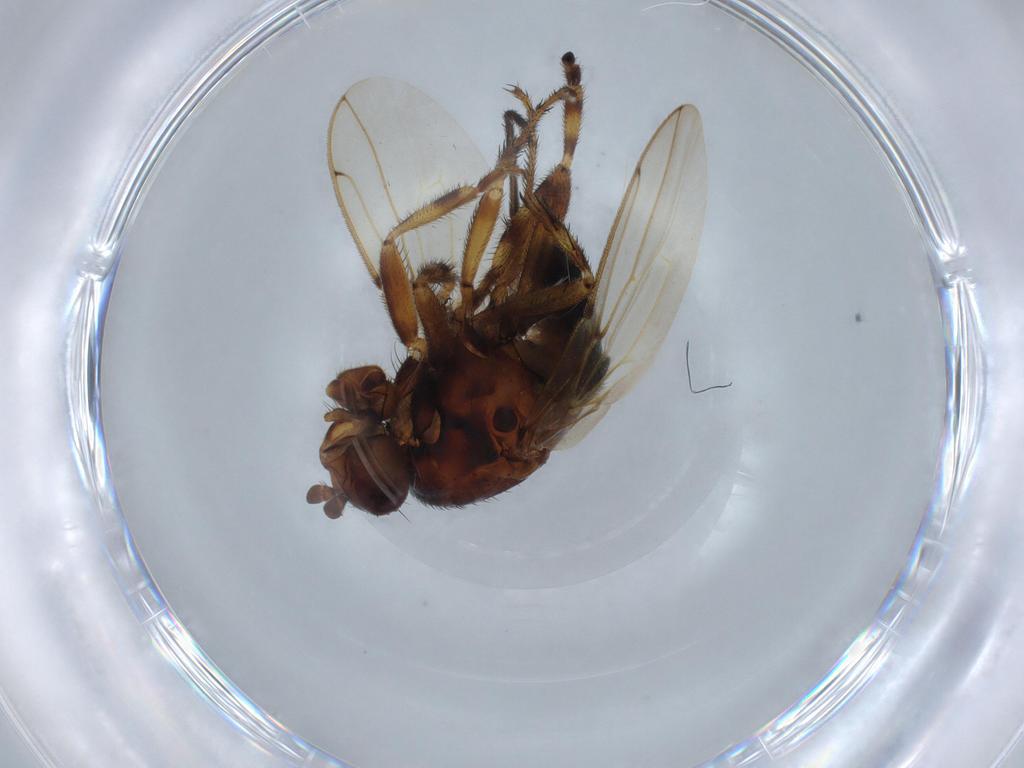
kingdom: Animalia
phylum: Arthropoda
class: Insecta
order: Diptera
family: Sphaeroceridae
